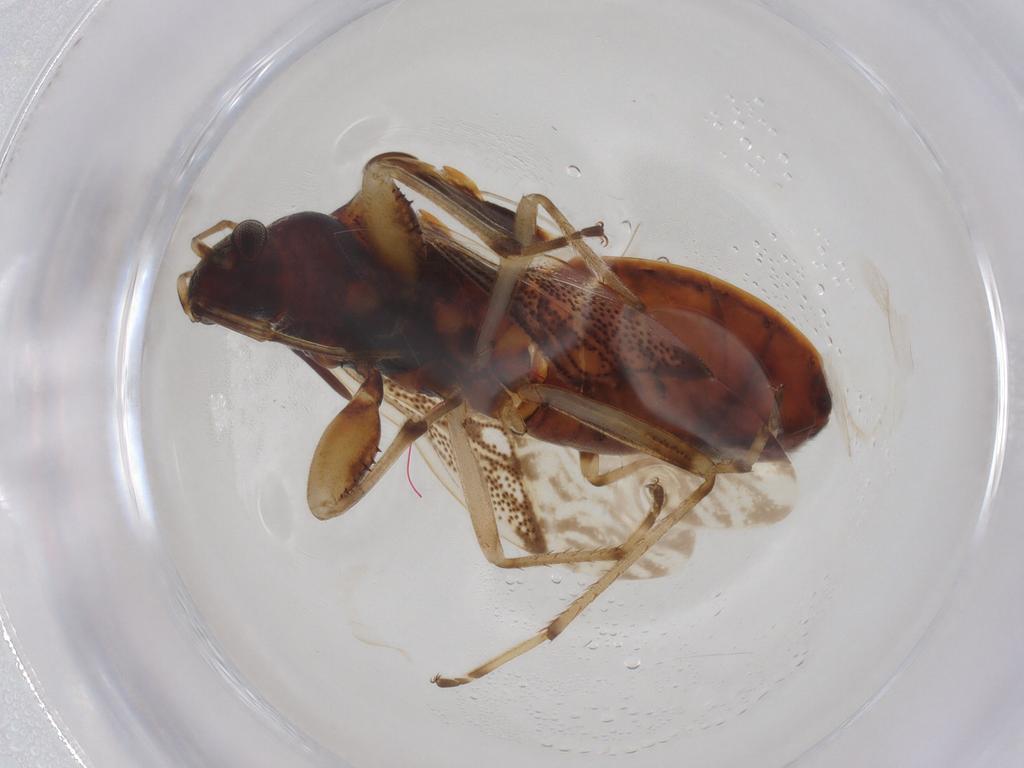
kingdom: Animalia
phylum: Arthropoda
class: Insecta
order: Hemiptera
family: Rhyparochromidae
